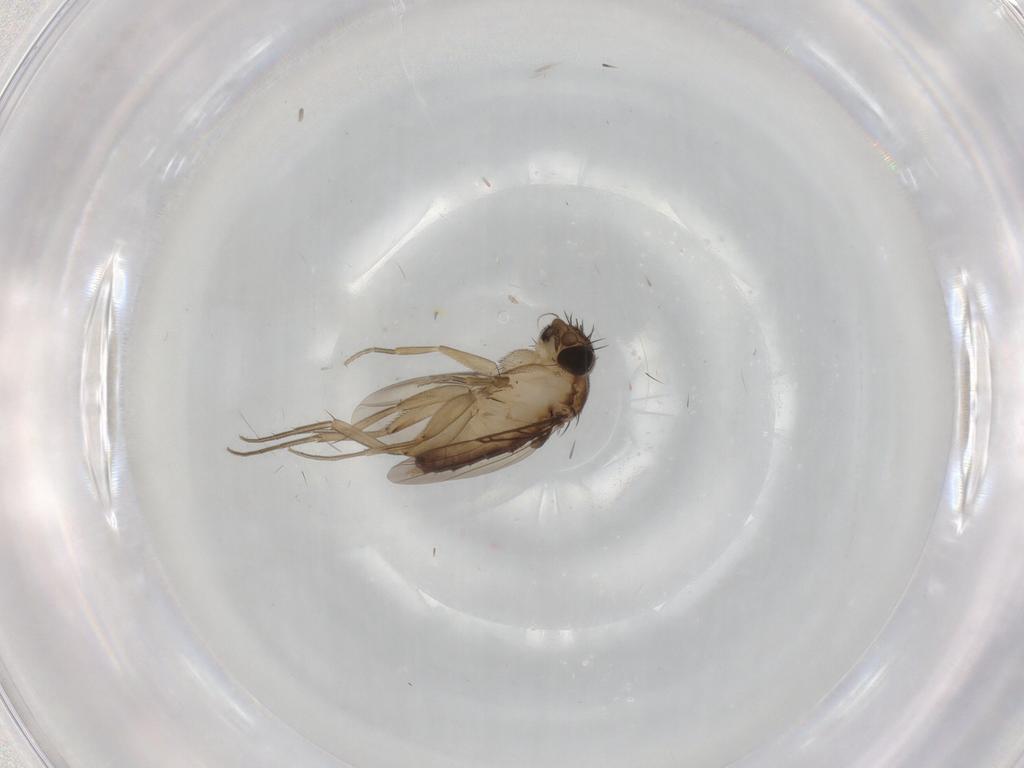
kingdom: Animalia
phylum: Arthropoda
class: Insecta
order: Diptera
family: Phoridae
